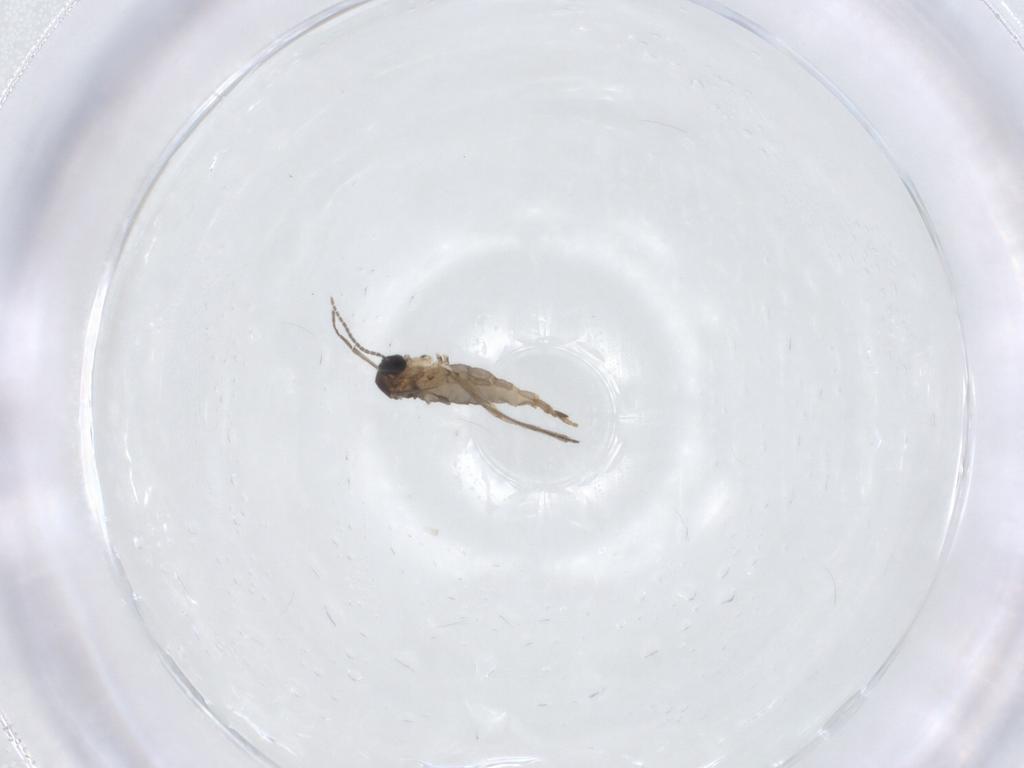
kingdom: Animalia
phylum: Arthropoda
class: Insecta
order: Diptera
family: Sciaridae
